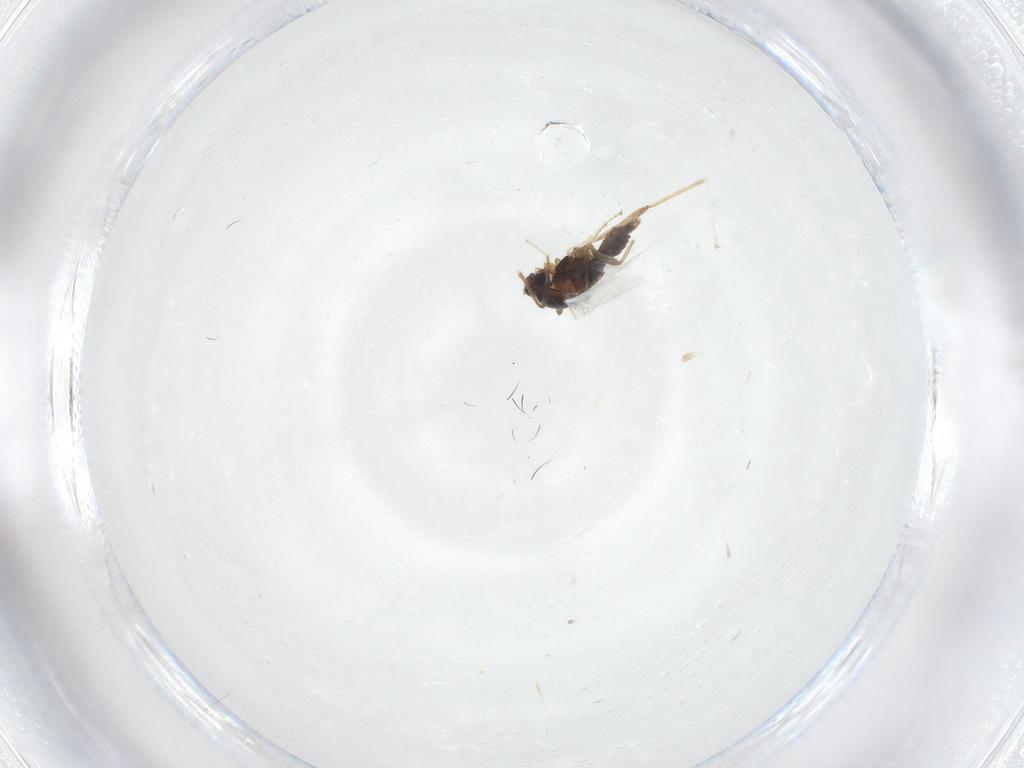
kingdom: Animalia
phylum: Arthropoda
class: Insecta
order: Diptera
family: Cecidomyiidae
